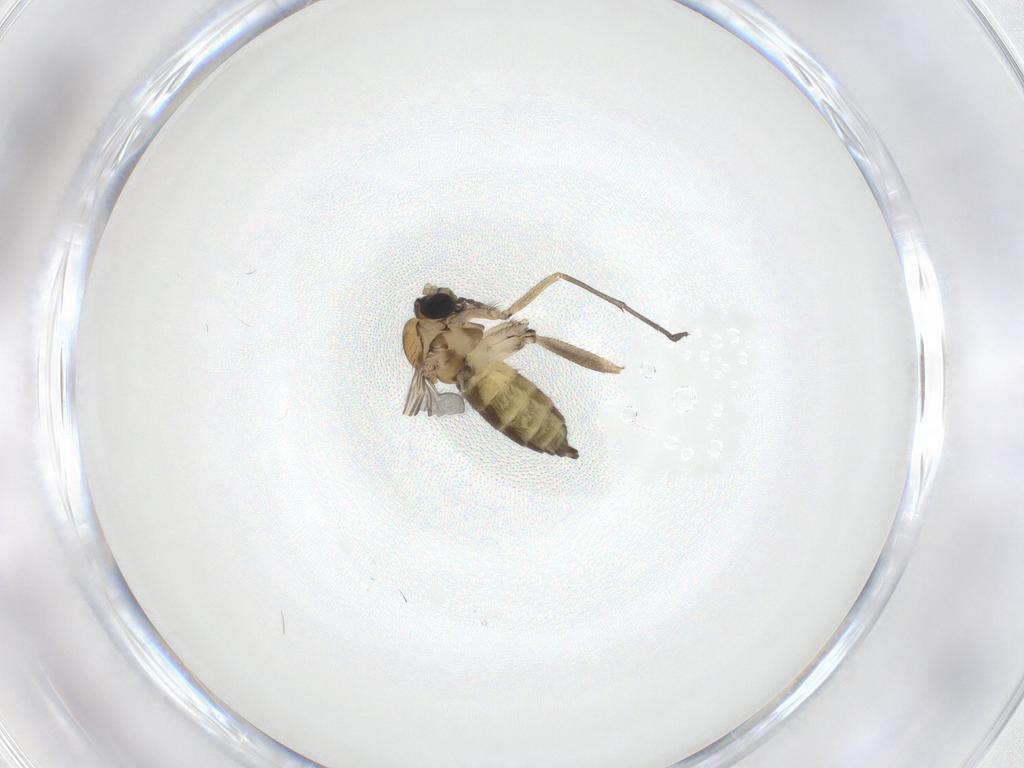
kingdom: Animalia
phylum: Arthropoda
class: Insecta
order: Diptera
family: Sciaridae
